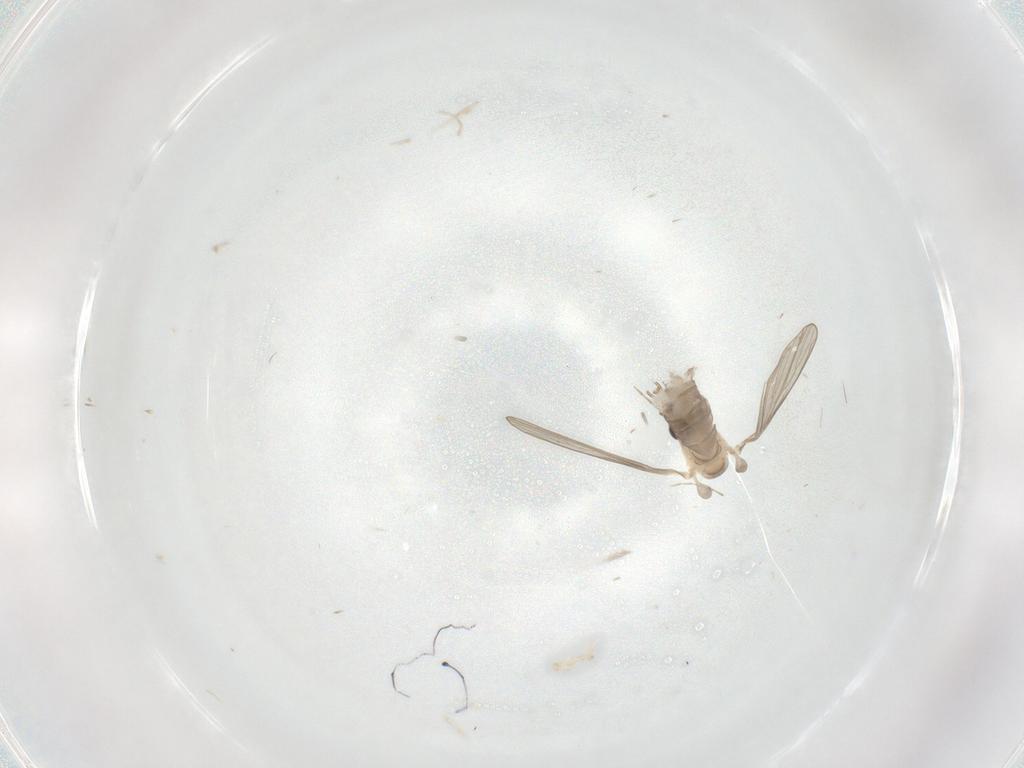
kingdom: Animalia
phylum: Arthropoda
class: Insecta
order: Diptera
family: Psychodidae
